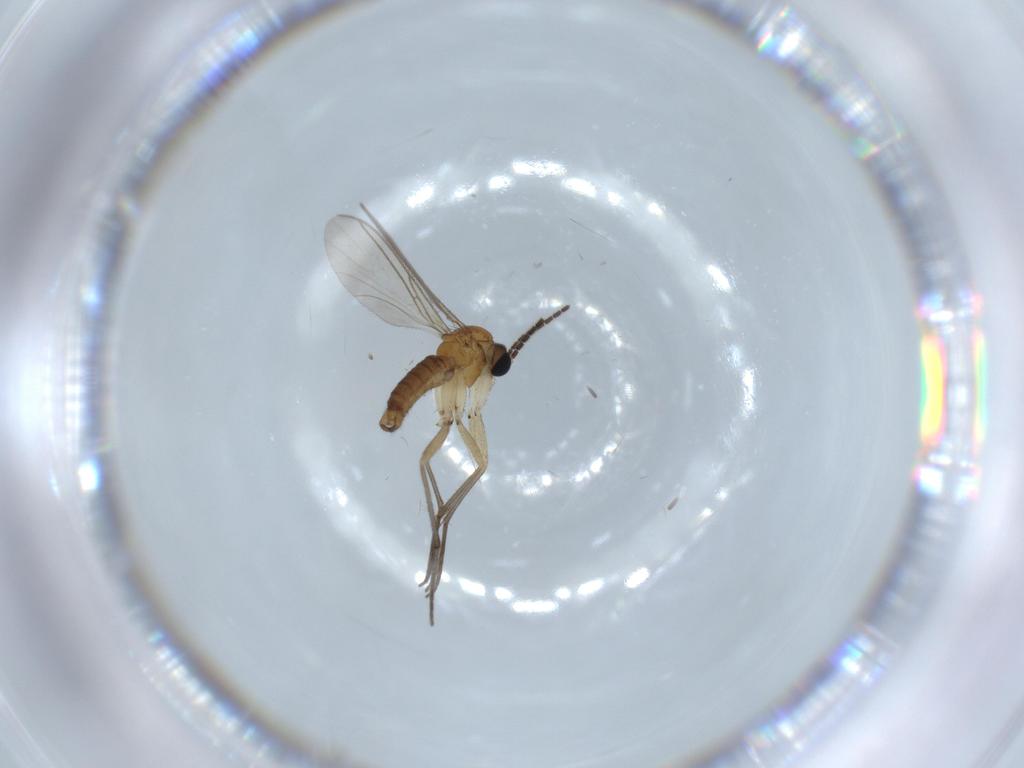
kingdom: Animalia
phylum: Arthropoda
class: Insecta
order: Diptera
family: Sciaridae
